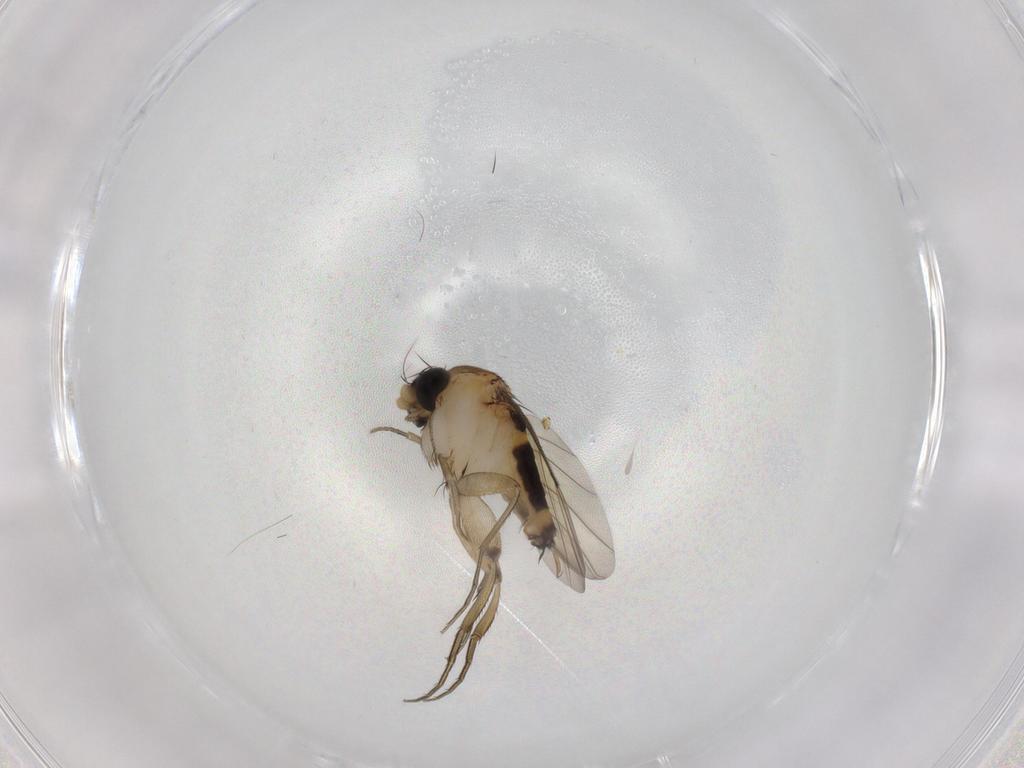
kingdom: Animalia
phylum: Arthropoda
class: Insecta
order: Diptera
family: Phoridae
